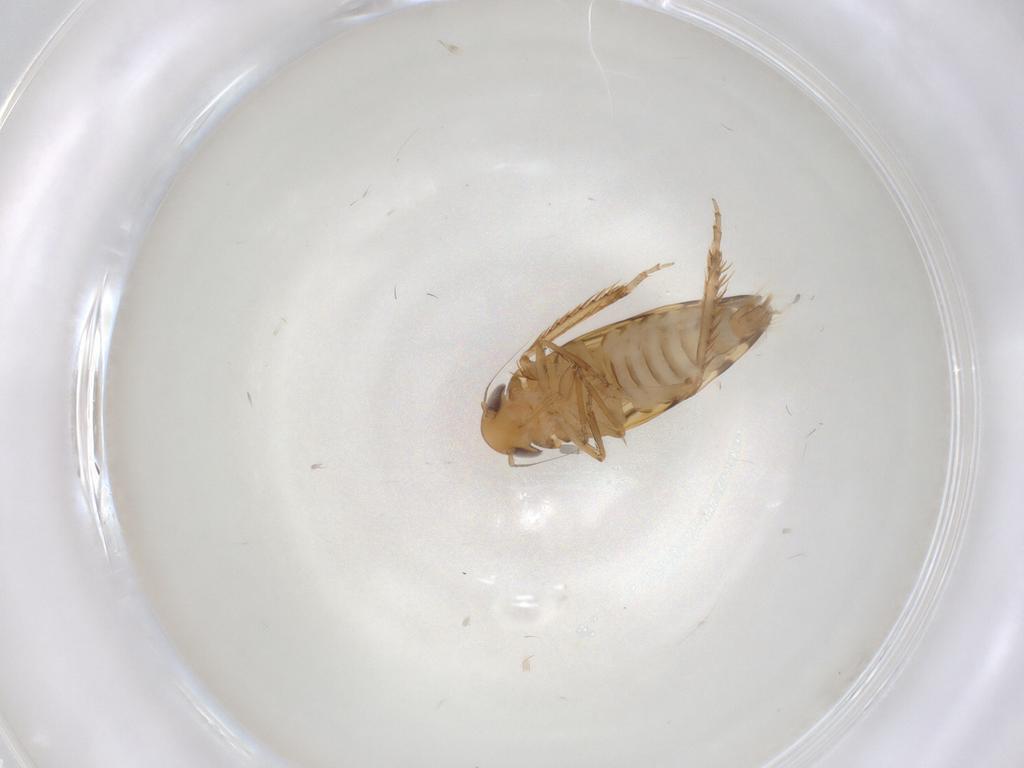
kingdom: Animalia
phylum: Arthropoda
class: Insecta
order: Hemiptera
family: Cicadellidae
